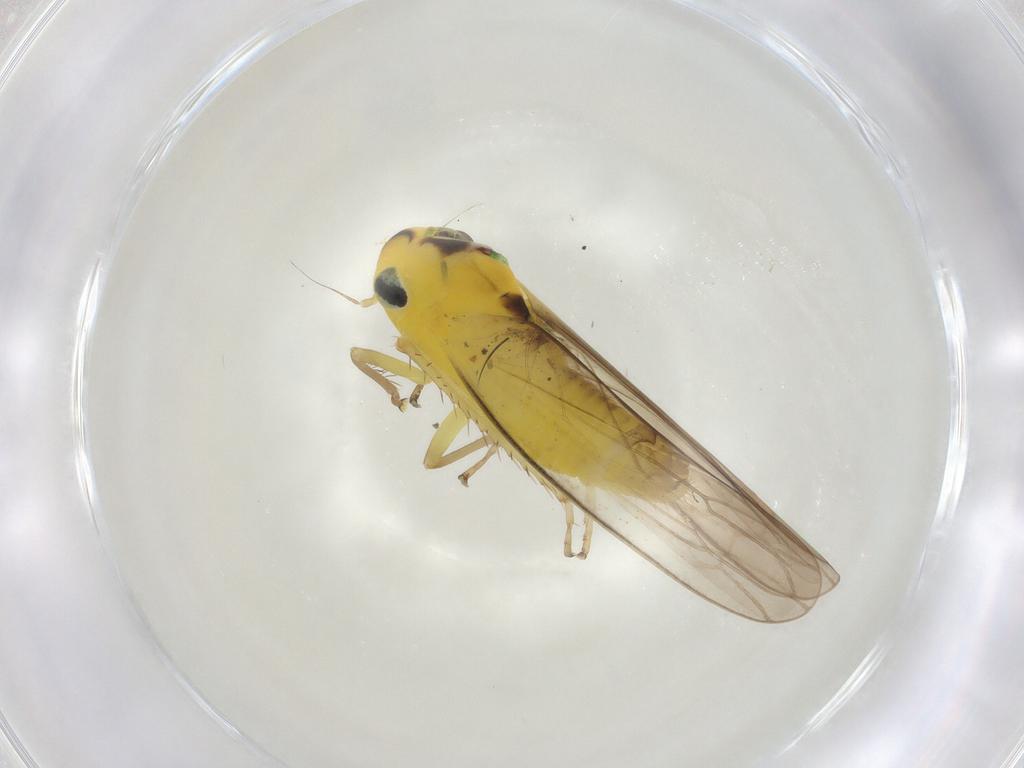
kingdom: Animalia
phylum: Arthropoda
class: Insecta
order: Hemiptera
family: Cicadellidae
